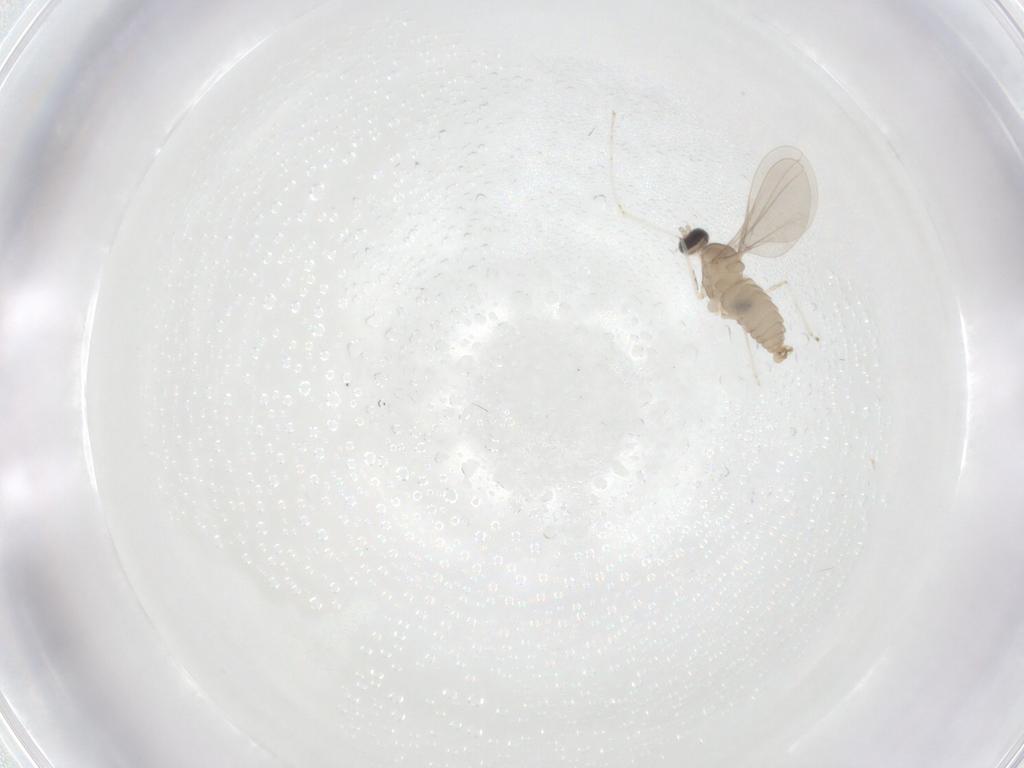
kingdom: Animalia
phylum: Arthropoda
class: Insecta
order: Diptera
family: Cecidomyiidae
